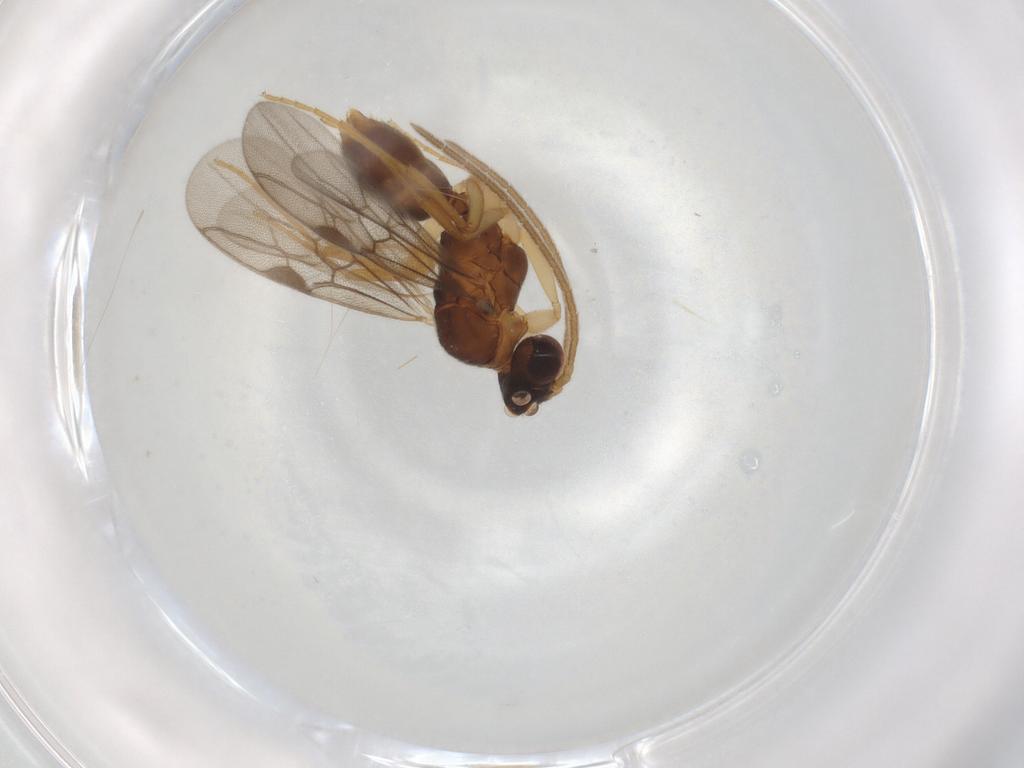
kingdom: Animalia
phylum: Arthropoda
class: Insecta
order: Hymenoptera
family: Formicidae
